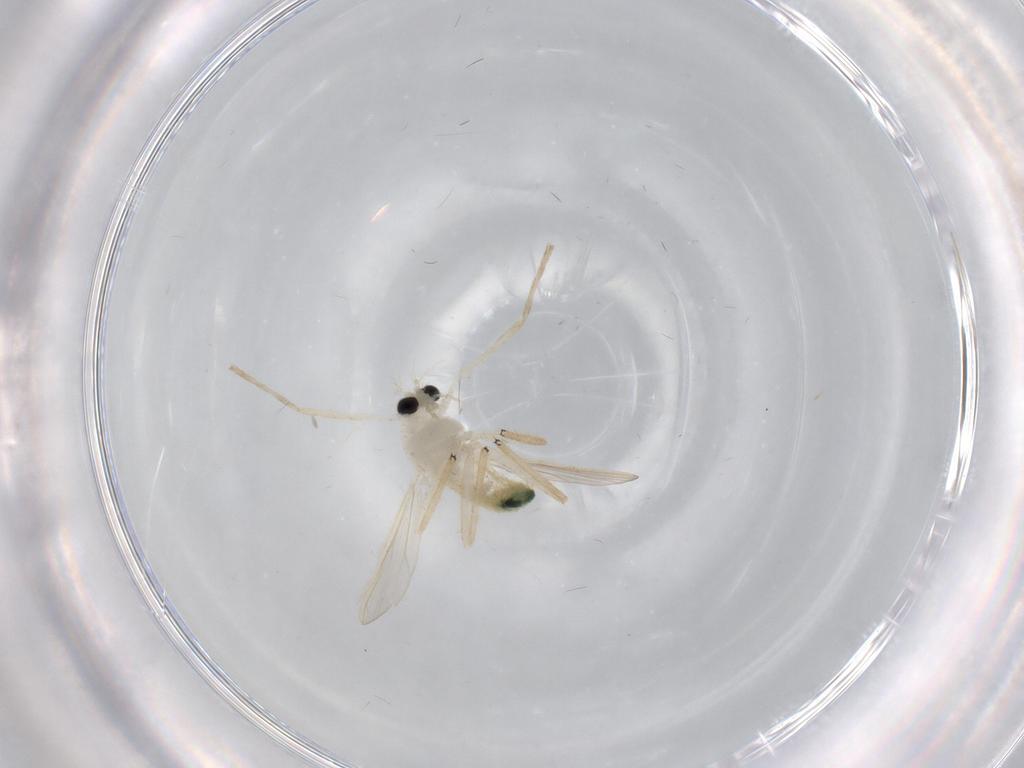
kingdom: Animalia
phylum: Arthropoda
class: Insecta
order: Diptera
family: Chironomidae
